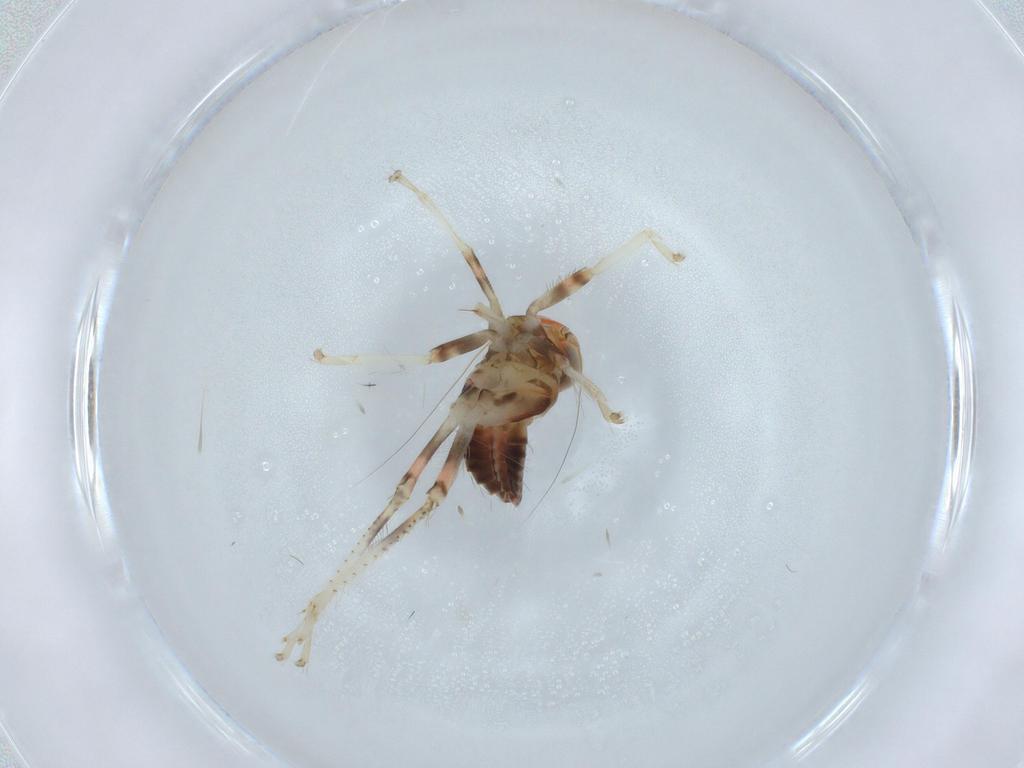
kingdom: Animalia
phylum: Arthropoda
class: Insecta
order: Hemiptera
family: Cicadellidae
